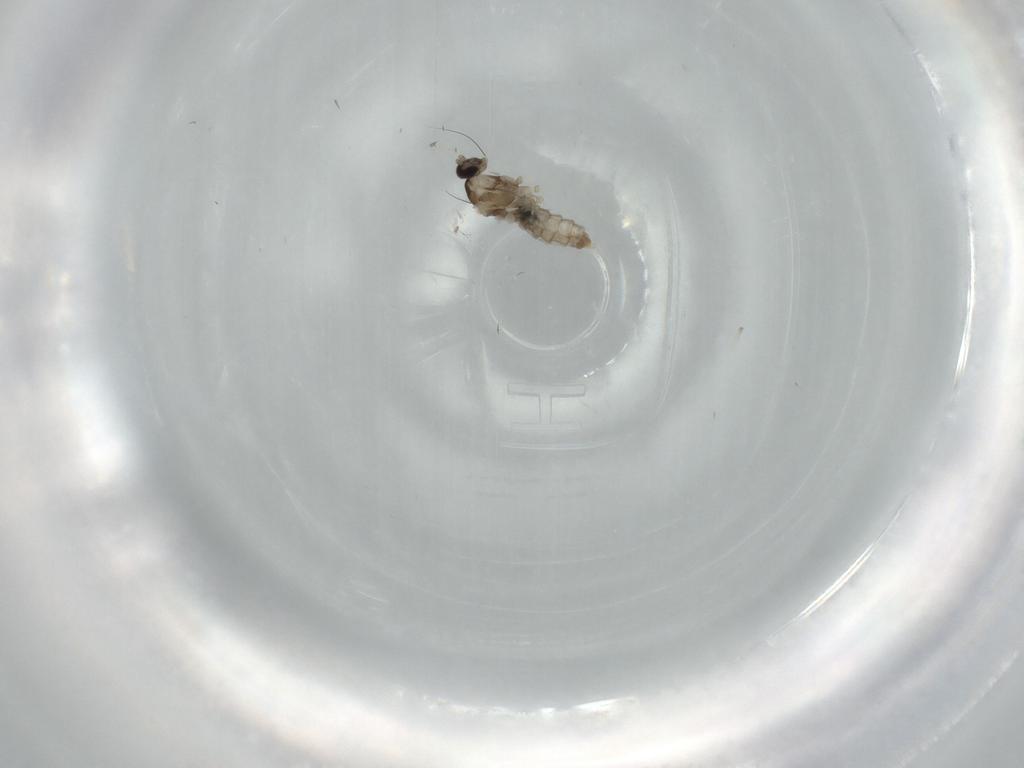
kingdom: Animalia
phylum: Arthropoda
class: Insecta
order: Diptera
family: Cecidomyiidae
